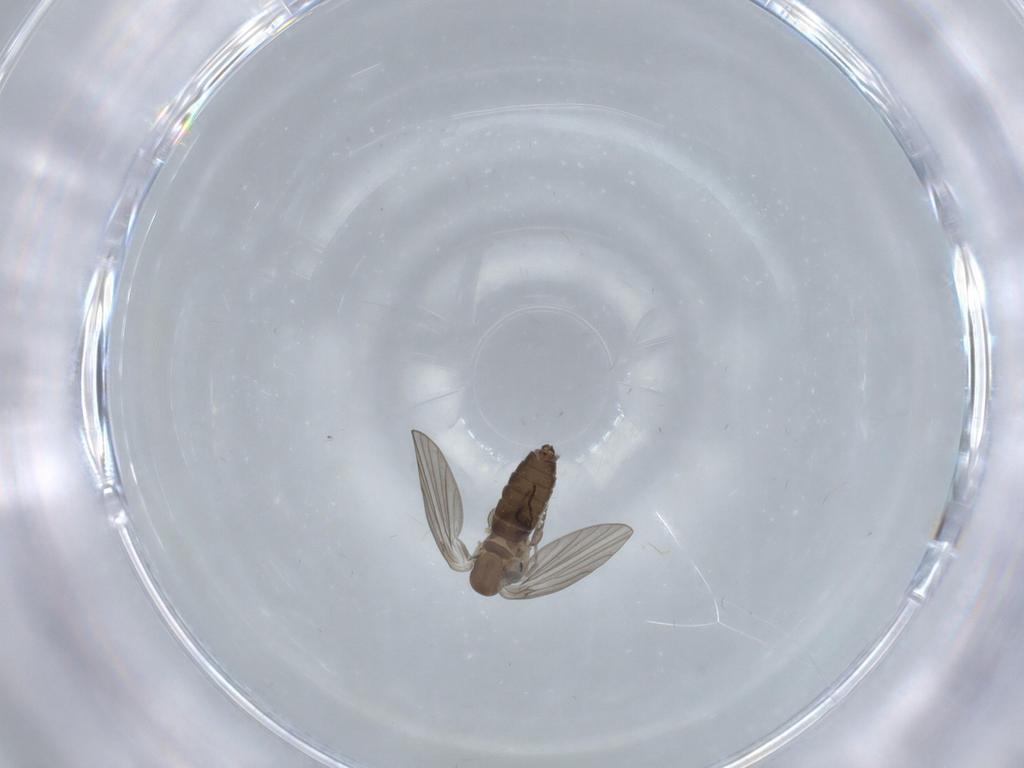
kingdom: Animalia
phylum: Arthropoda
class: Insecta
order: Diptera
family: Psychodidae
